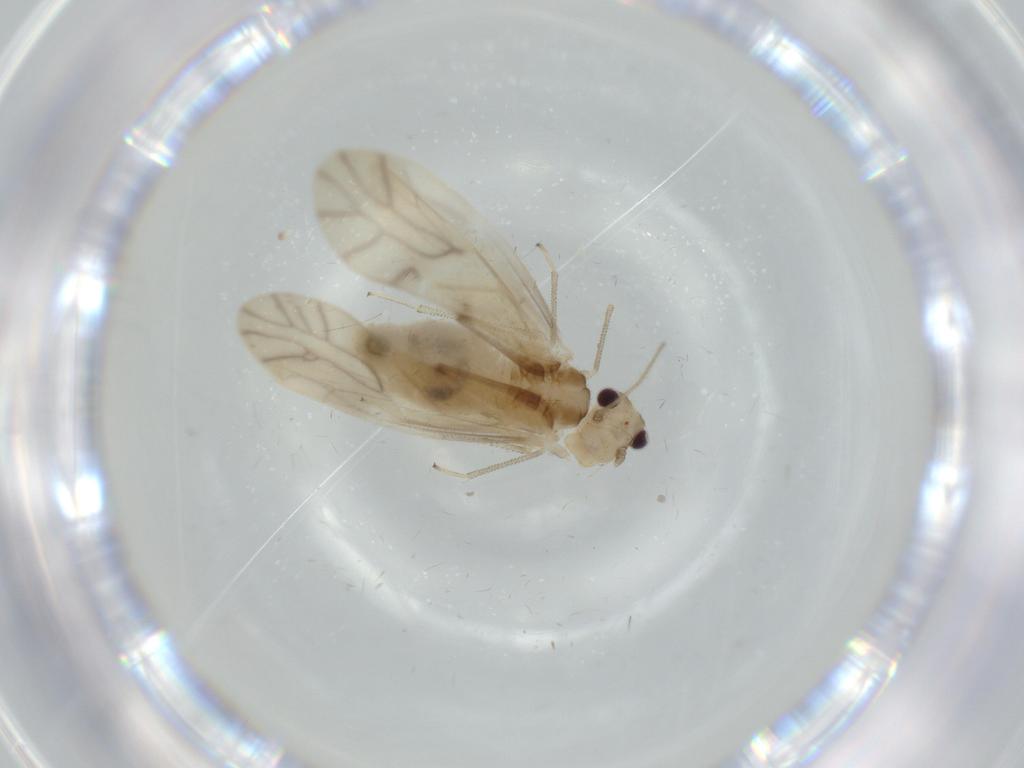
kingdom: Animalia
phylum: Arthropoda
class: Insecta
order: Psocodea
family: Caeciliusidae
